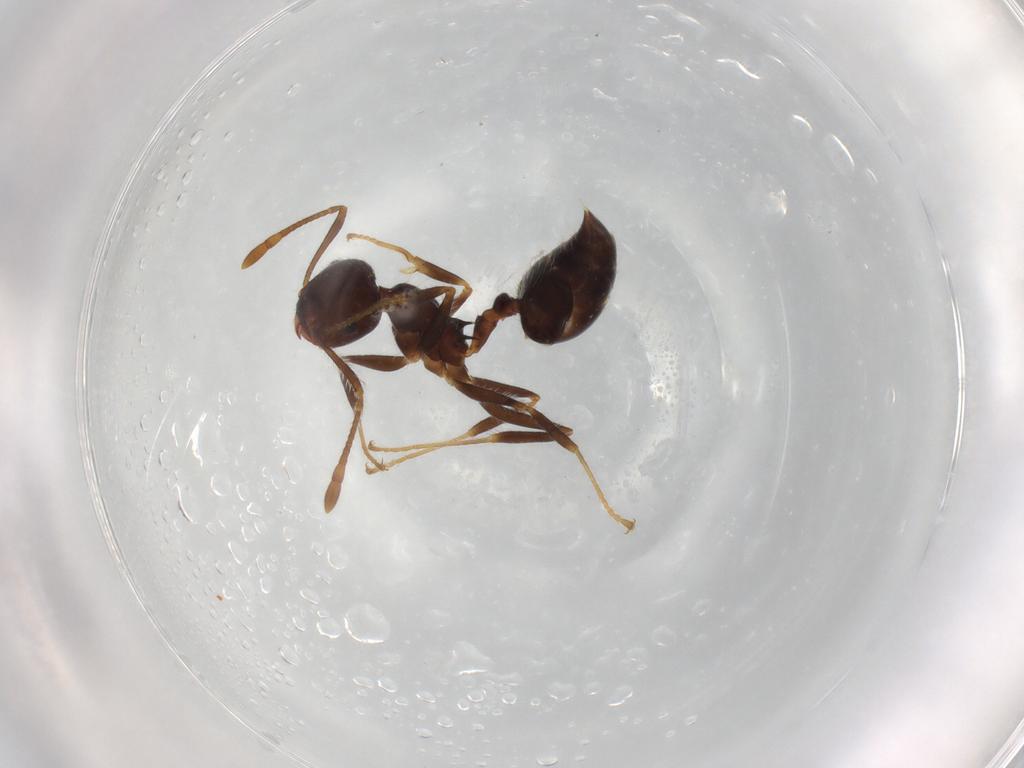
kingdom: Animalia
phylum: Arthropoda
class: Insecta
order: Hymenoptera
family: Formicidae
